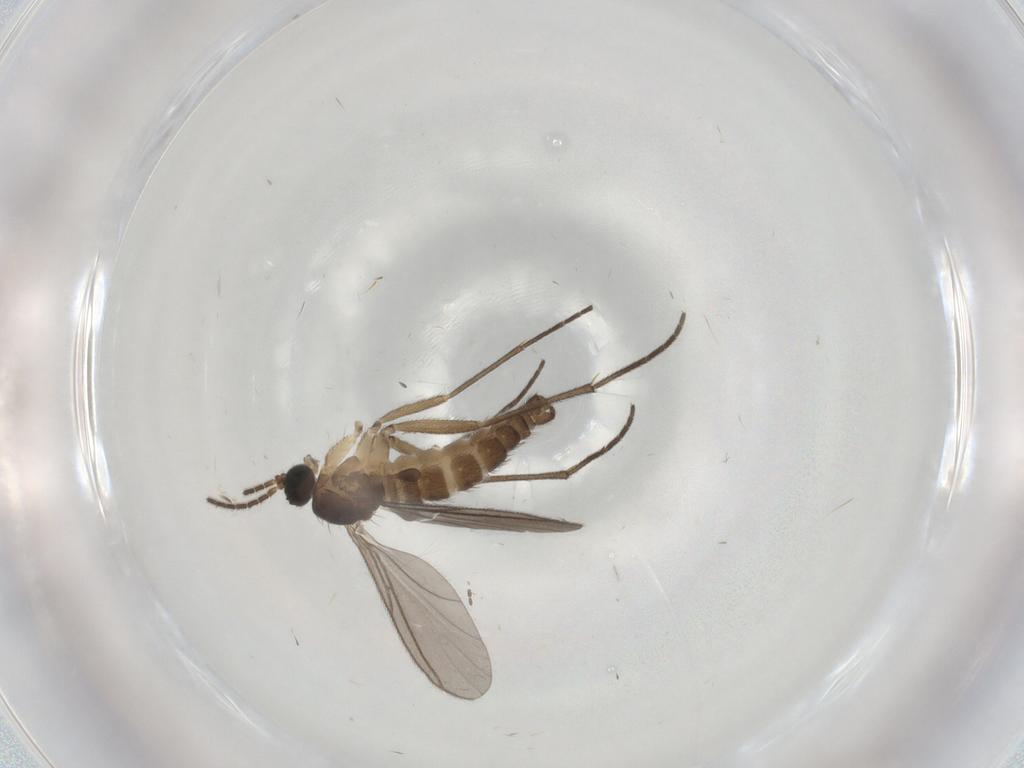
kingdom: Animalia
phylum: Arthropoda
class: Insecta
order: Diptera
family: Sciaridae
